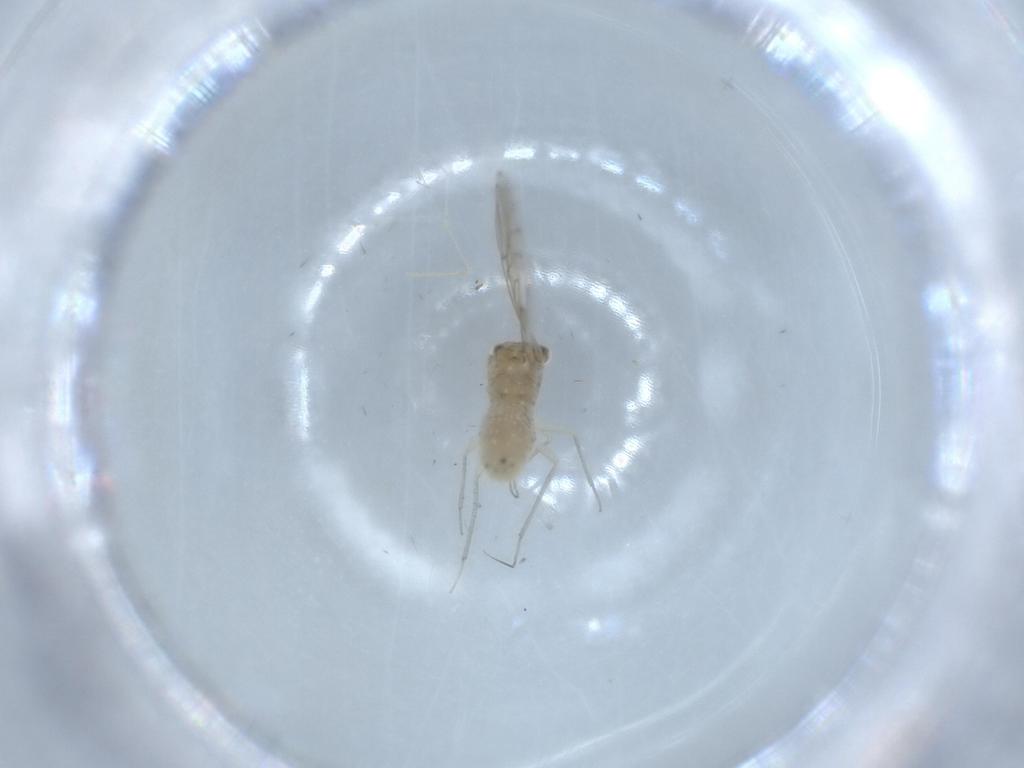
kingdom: Animalia
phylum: Arthropoda
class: Insecta
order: Psocodea
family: Lachesillidae
